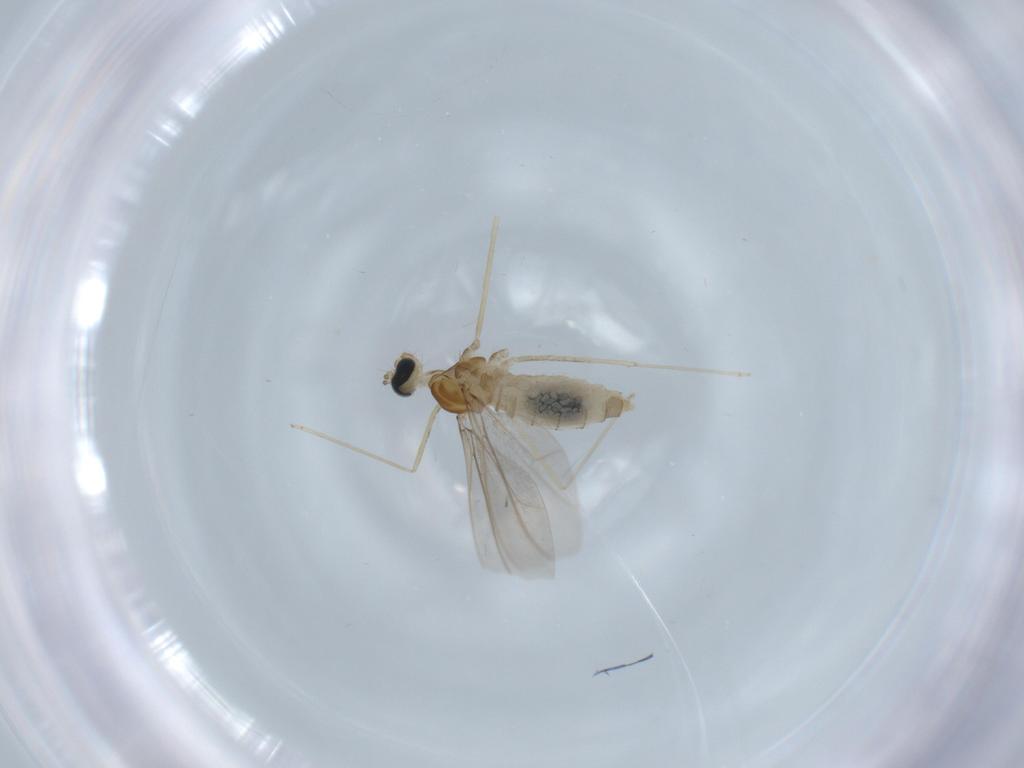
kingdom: Animalia
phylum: Arthropoda
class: Insecta
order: Diptera
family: Cecidomyiidae
